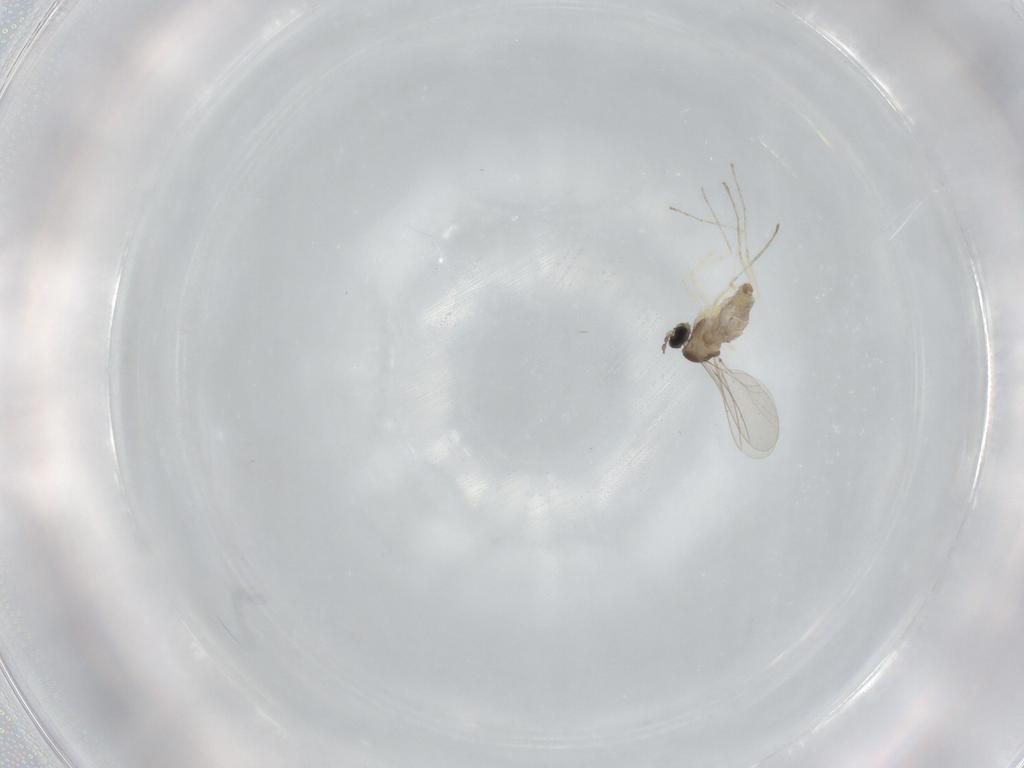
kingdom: Animalia
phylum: Arthropoda
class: Insecta
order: Diptera
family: Cecidomyiidae
